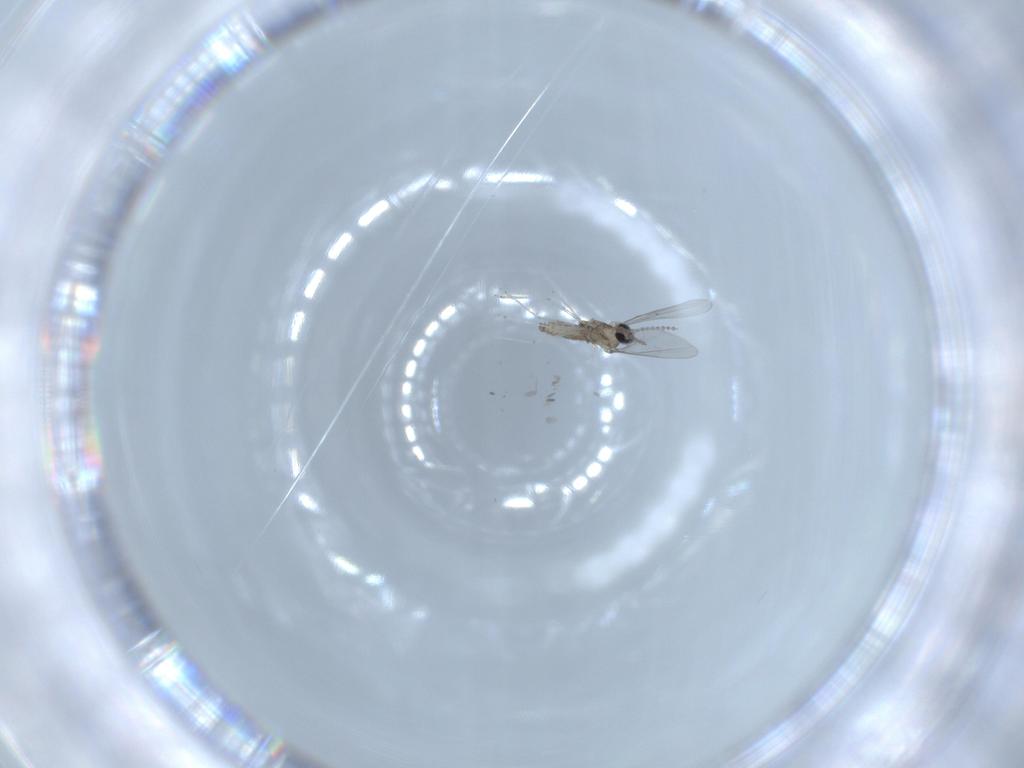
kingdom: Animalia
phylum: Arthropoda
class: Insecta
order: Diptera
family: Cecidomyiidae
